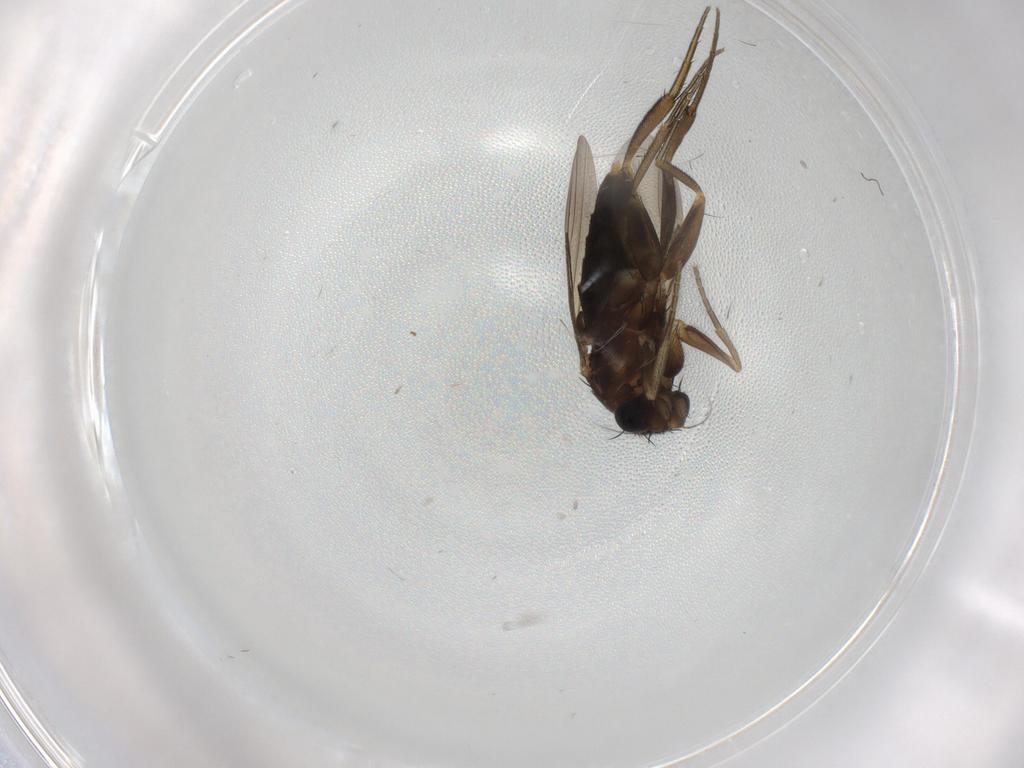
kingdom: Animalia
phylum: Arthropoda
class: Insecta
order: Diptera
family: Phoridae
